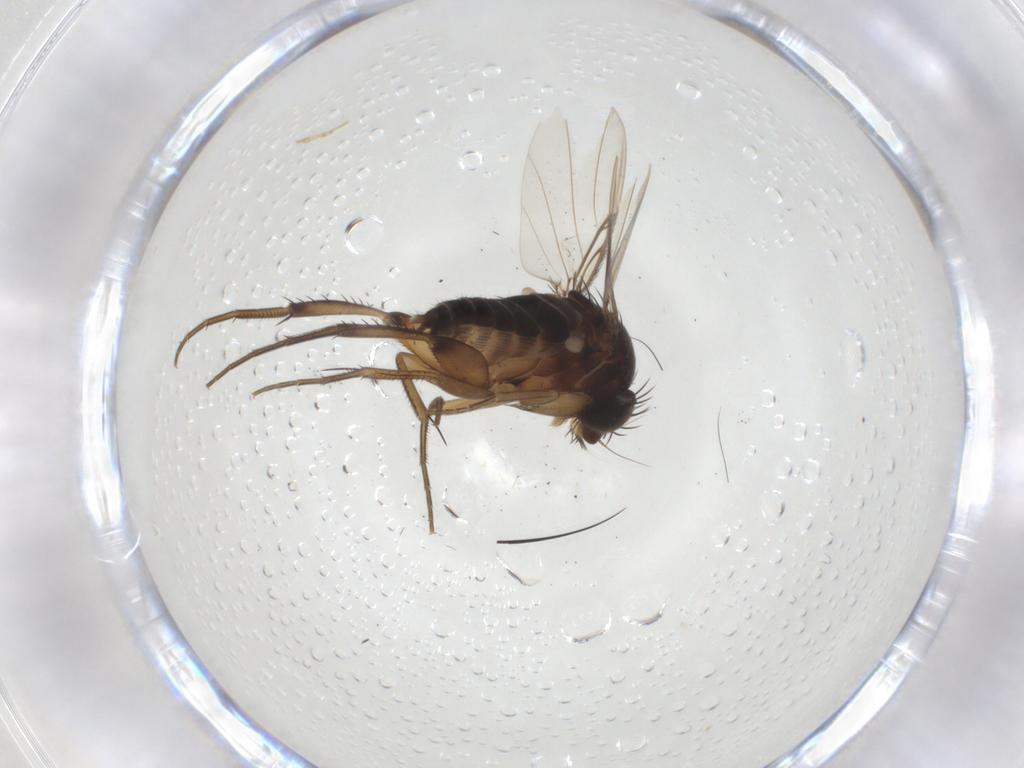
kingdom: Animalia
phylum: Arthropoda
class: Insecta
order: Diptera
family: Phoridae
